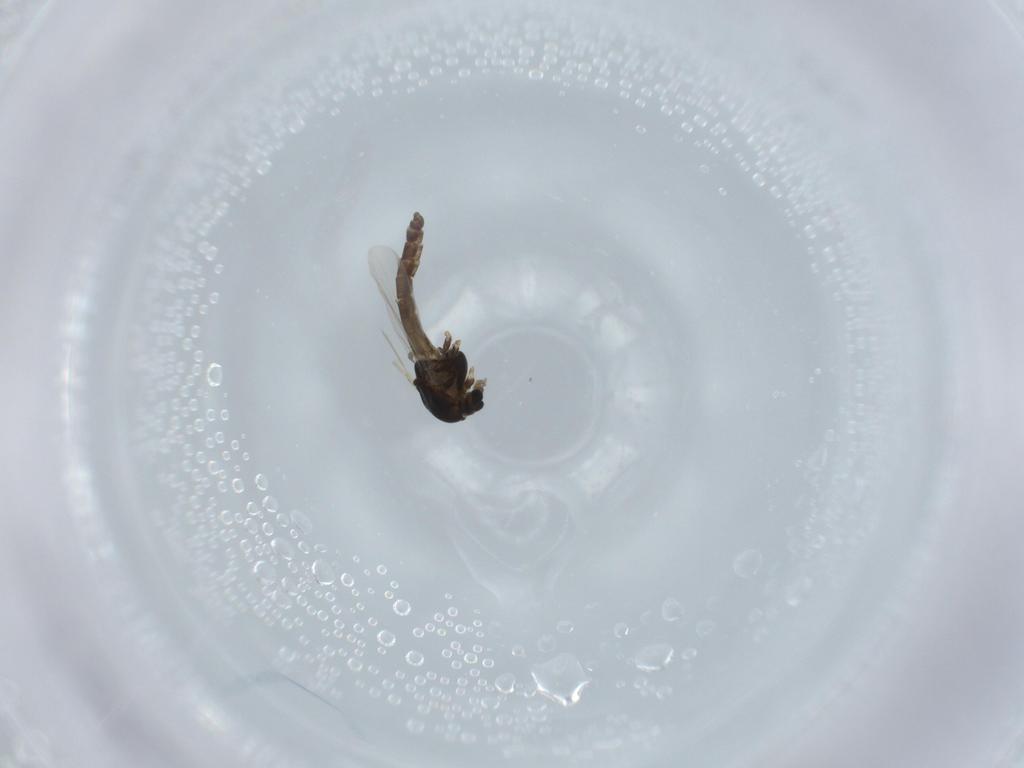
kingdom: Animalia
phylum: Arthropoda
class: Insecta
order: Diptera
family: Chironomidae
